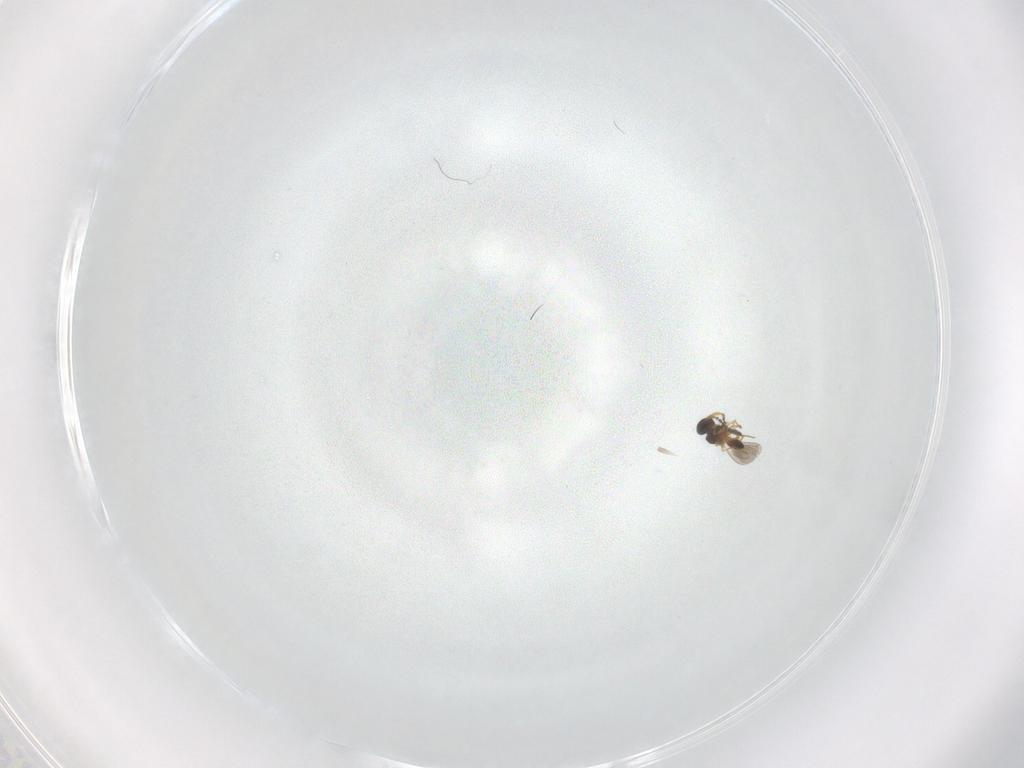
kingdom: Animalia
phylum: Arthropoda
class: Insecta
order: Hymenoptera
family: Platygastridae
